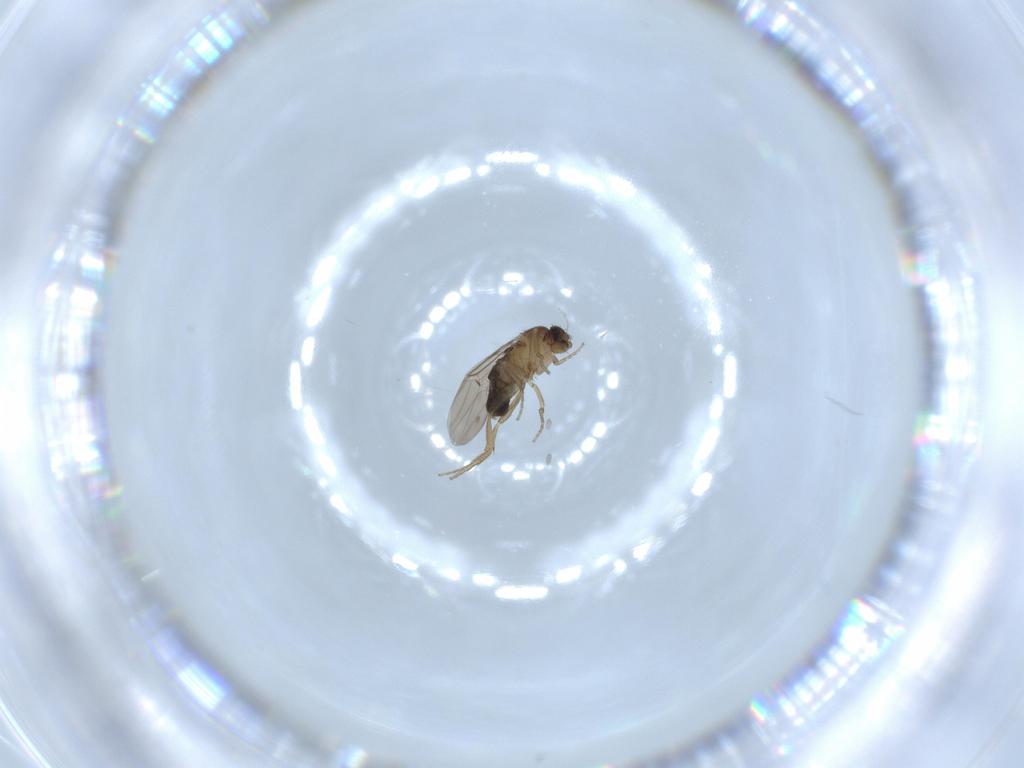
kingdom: Animalia
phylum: Arthropoda
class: Insecta
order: Diptera
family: Phoridae
